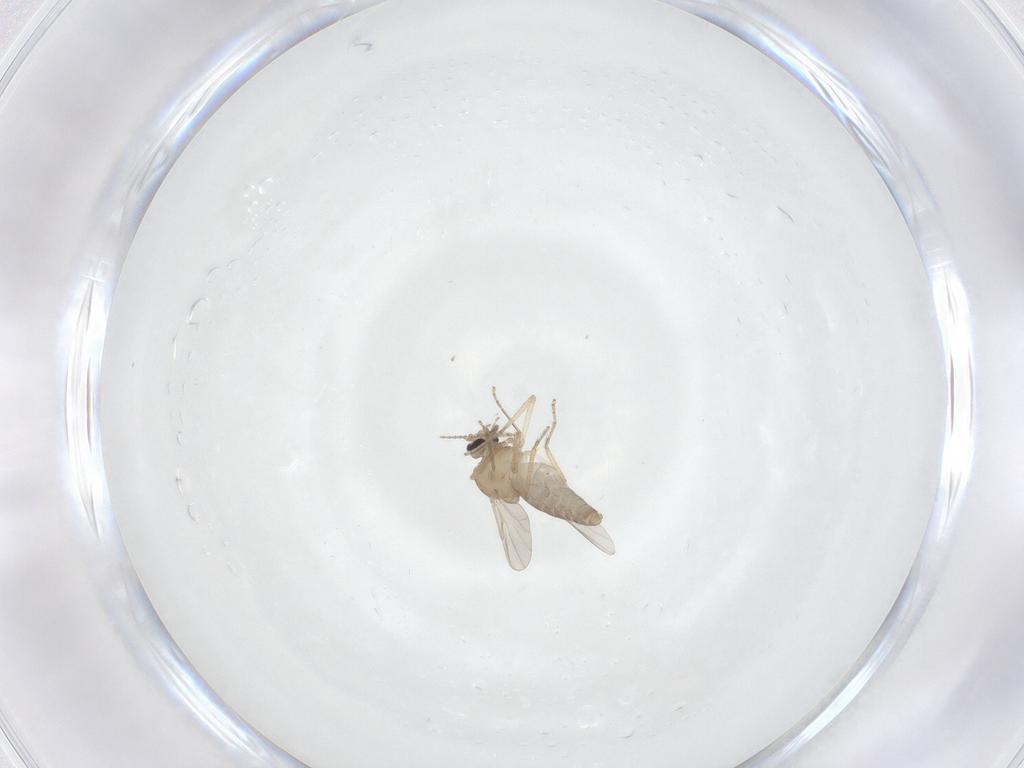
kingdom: Animalia
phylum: Arthropoda
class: Insecta
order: Diptera
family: Ceratopogonidae
